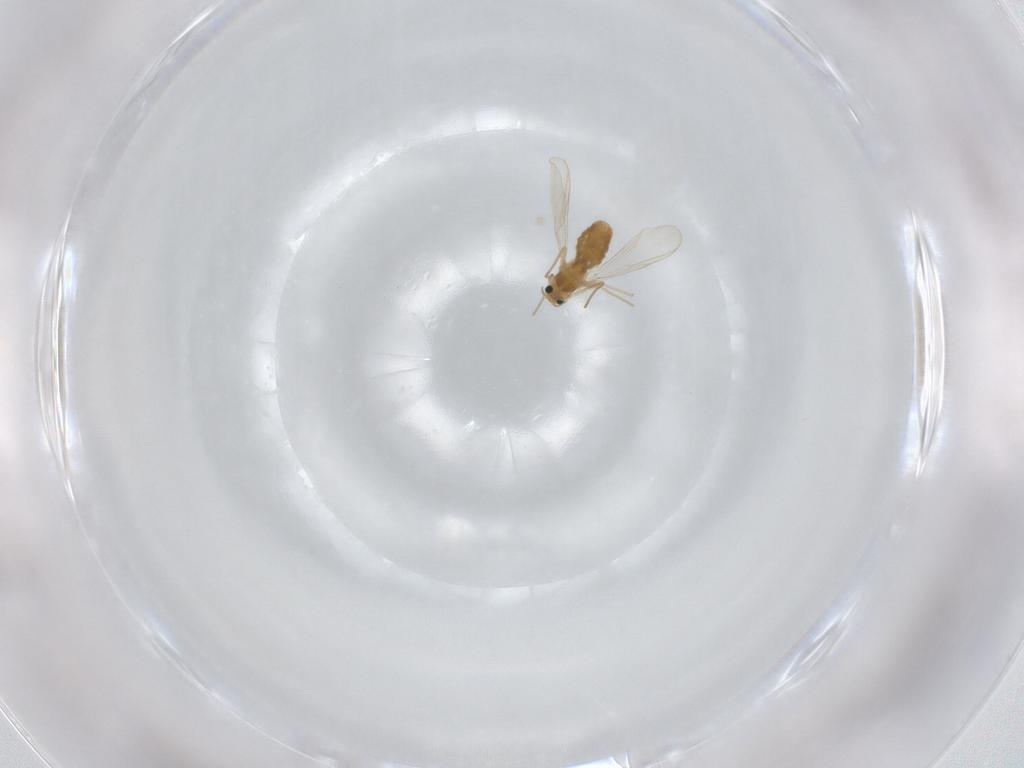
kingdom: Animalia
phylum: Arthropoda
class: Insecta
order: Diptera
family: Chironomidae
